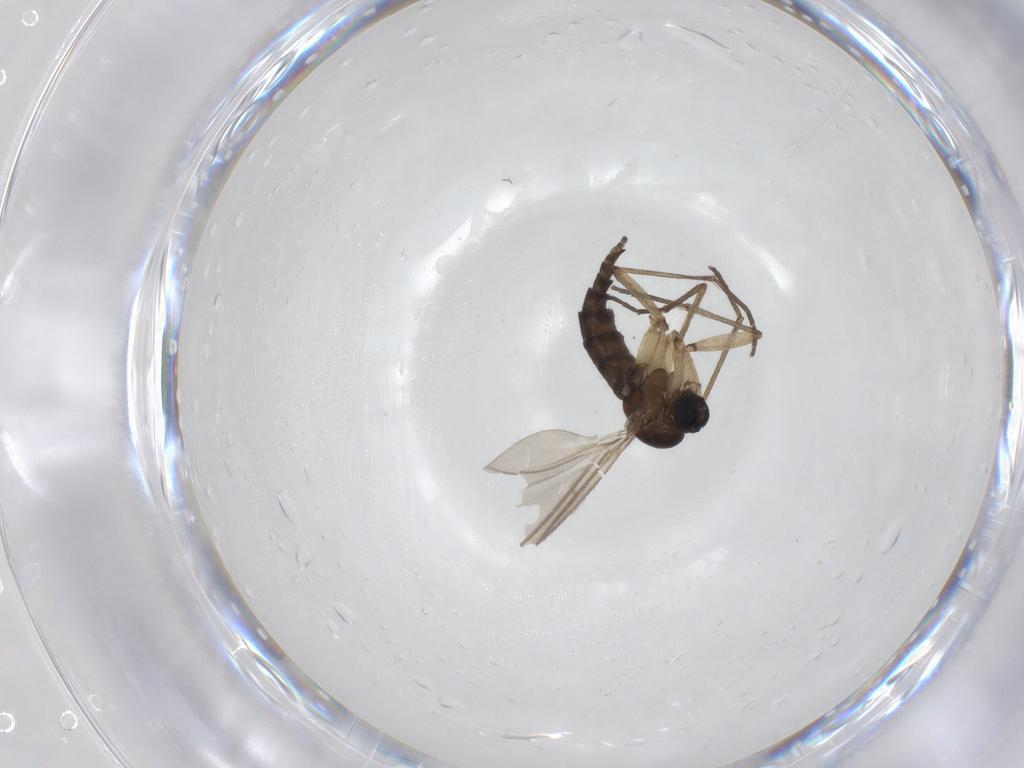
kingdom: Animalia
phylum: Arthropoda
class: Insecta
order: Diptera
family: Sciaridae
